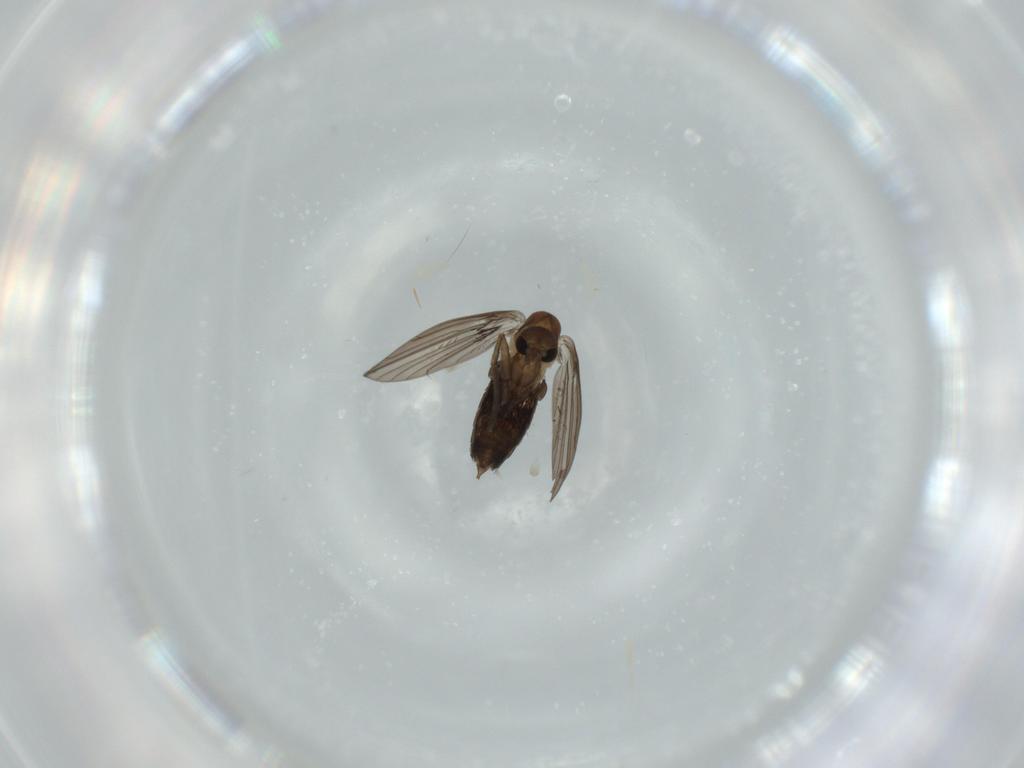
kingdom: Animalia
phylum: Arthropoda
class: Insecta
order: Diptera
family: Psychodidae
